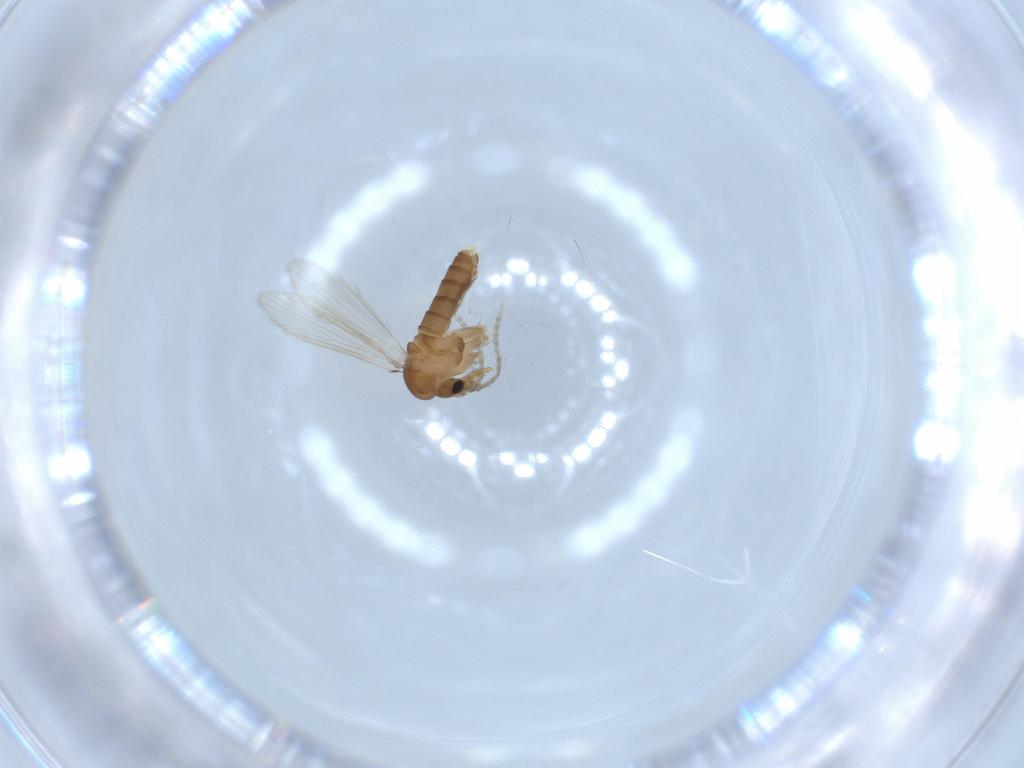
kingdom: Animalia
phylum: Arthropoda
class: Insecta
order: Diptera
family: Psychodidae
